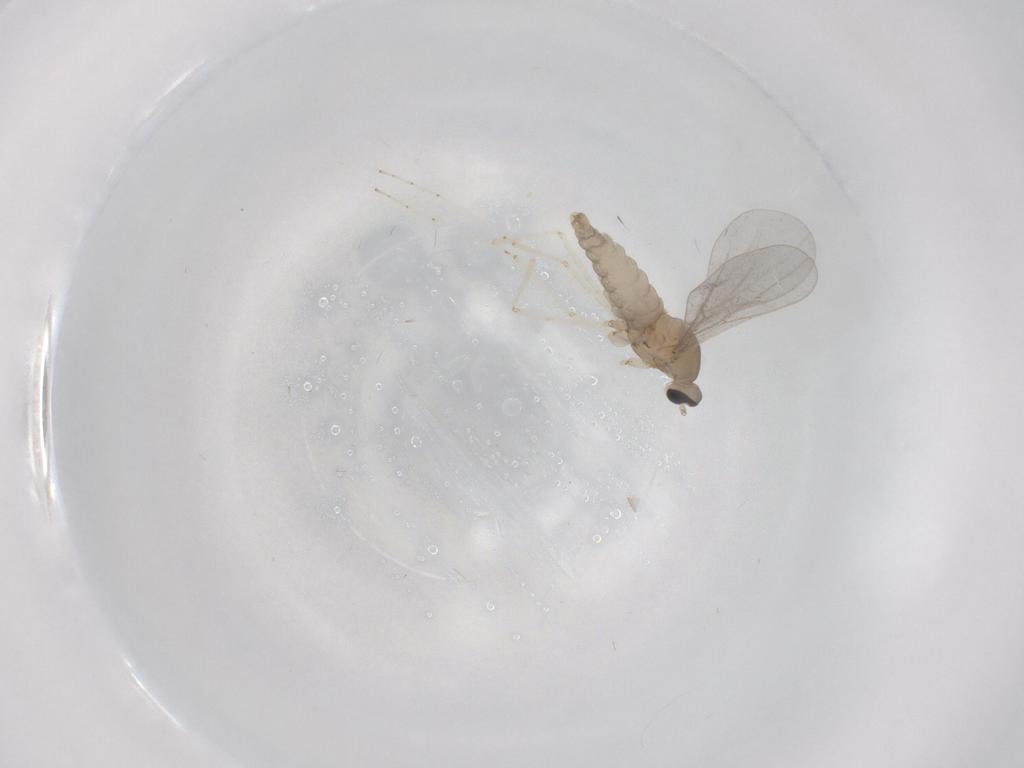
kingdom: Animalia
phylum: Arthropoda
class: Insecta
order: Diptera
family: Cecidomyiidae
